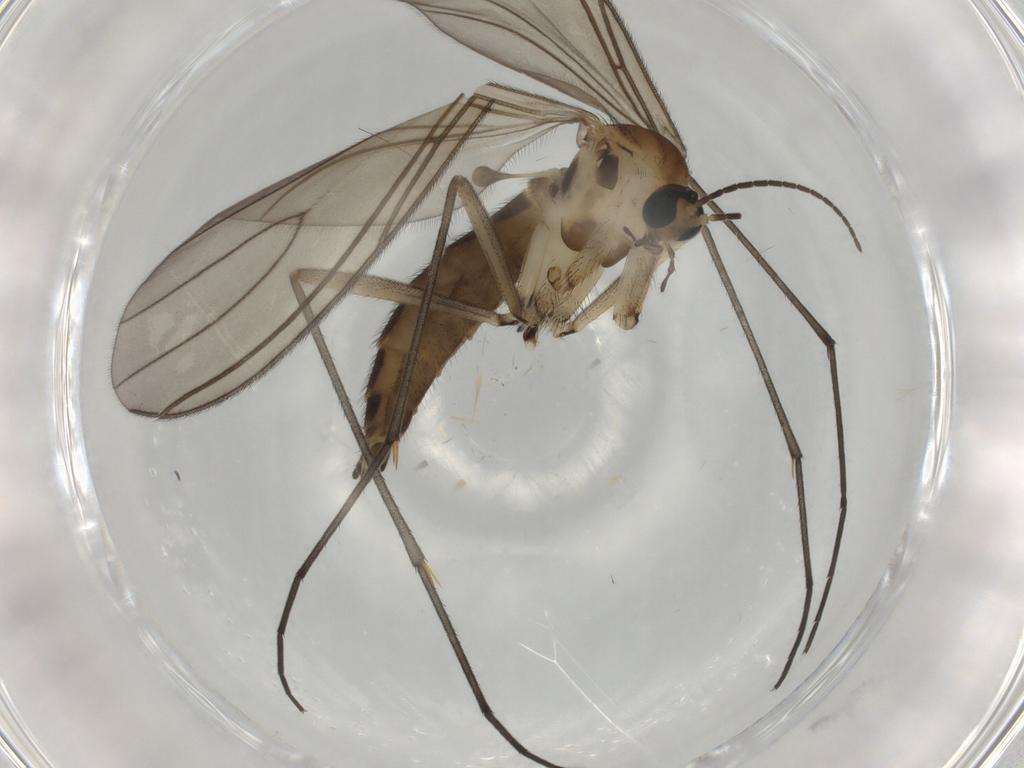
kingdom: Animalia
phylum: Arthropoda
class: Insecta
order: Diptera
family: Sciaridae
